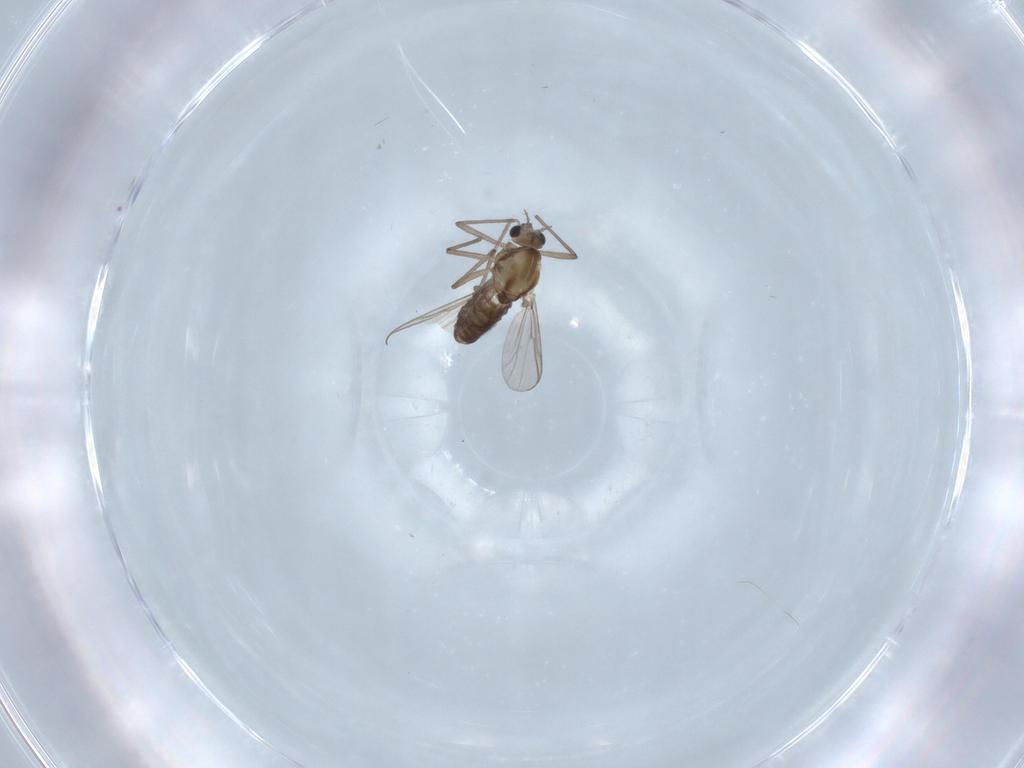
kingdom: Animalia
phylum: Arthropoda
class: Insecta
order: Diptera
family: Chironomidae
